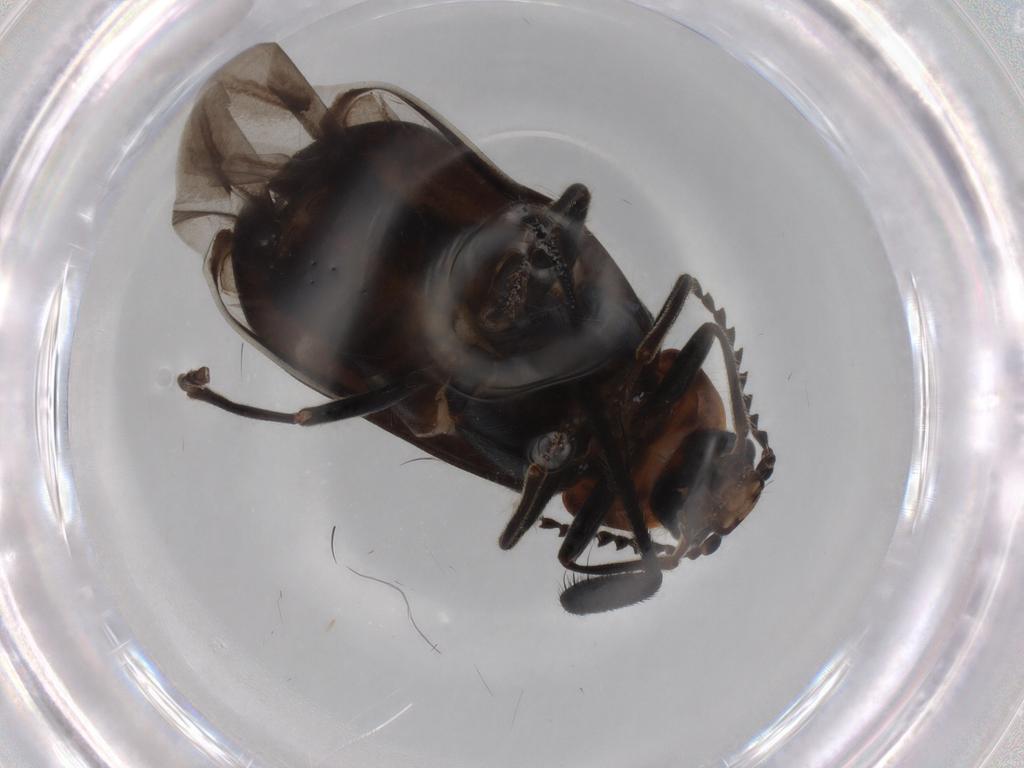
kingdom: Animalia
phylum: Arthropoda
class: Insecta
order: Coleoptera
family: Melyridae
